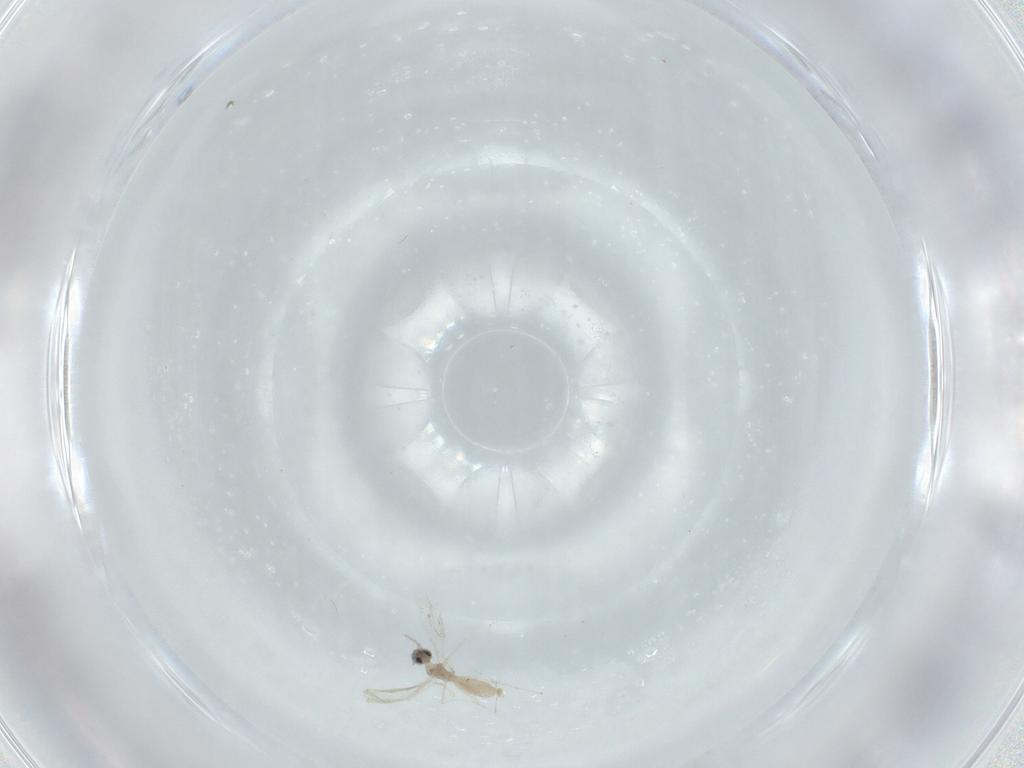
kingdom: Animalia
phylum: Arthropoda
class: Insecta
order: Diptera
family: Cecidomyiidae
